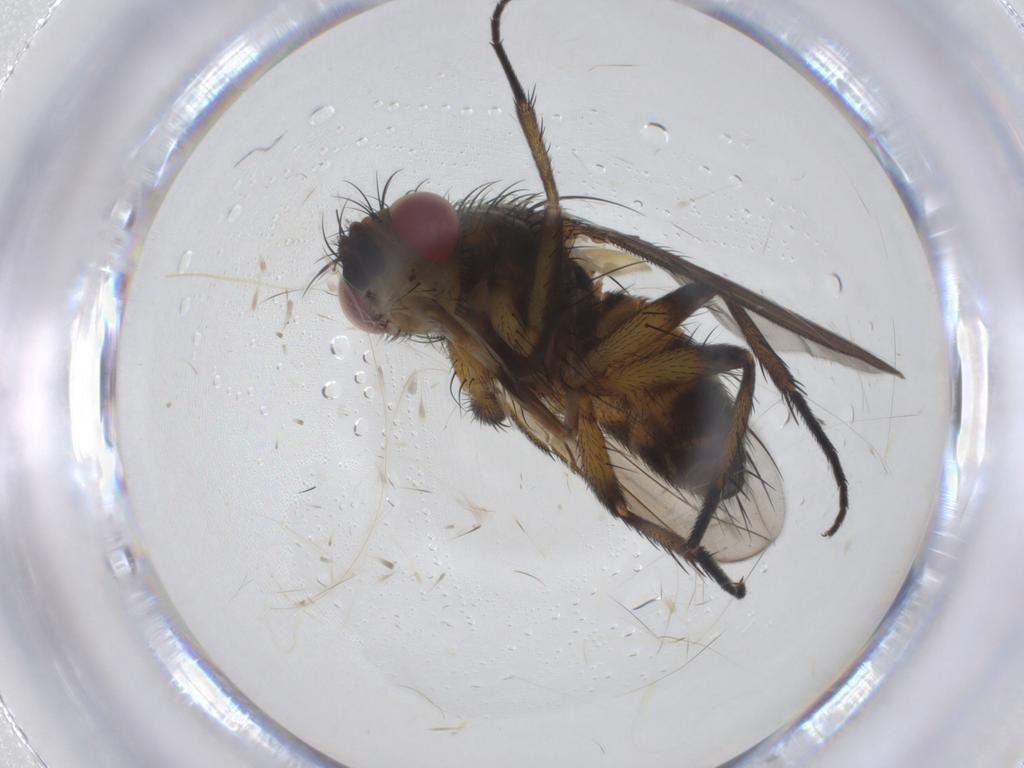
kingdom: Animalia
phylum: Arthropoda
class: Insecta
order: Diptera
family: Tachinidae
